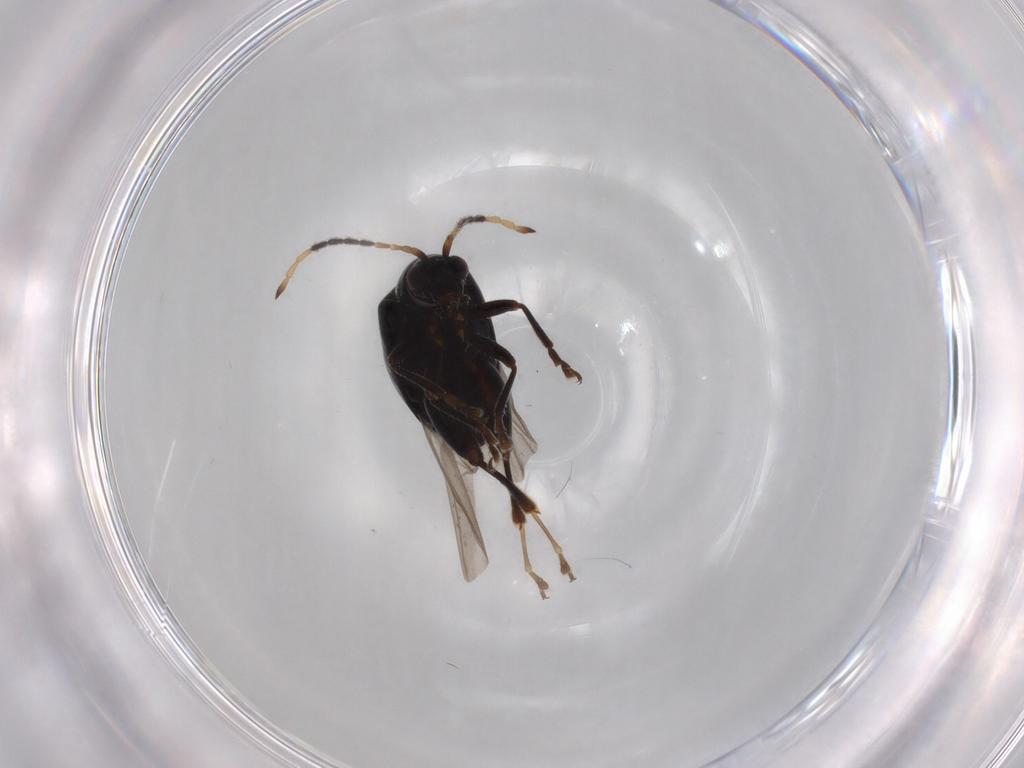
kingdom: Animalia
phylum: Arthropoda
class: Insecta
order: Coleoptera
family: Chrysomelidae
